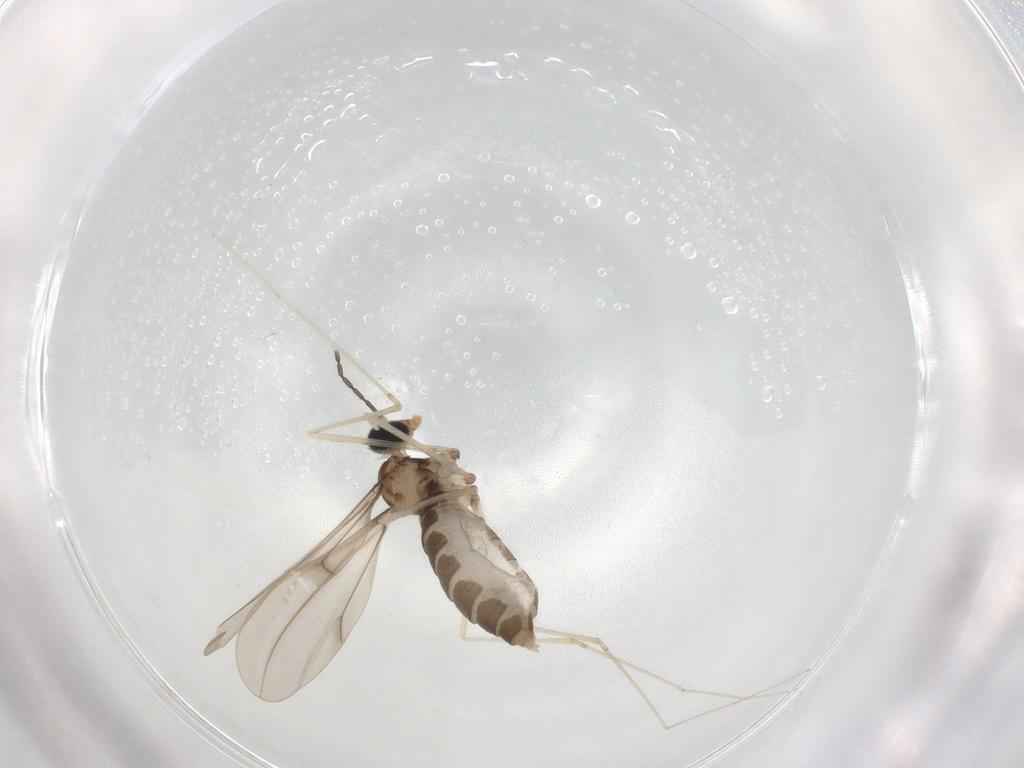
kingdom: Animalia
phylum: Arthropoda
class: Insecta
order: Diptera
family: Cecidomyiidae
